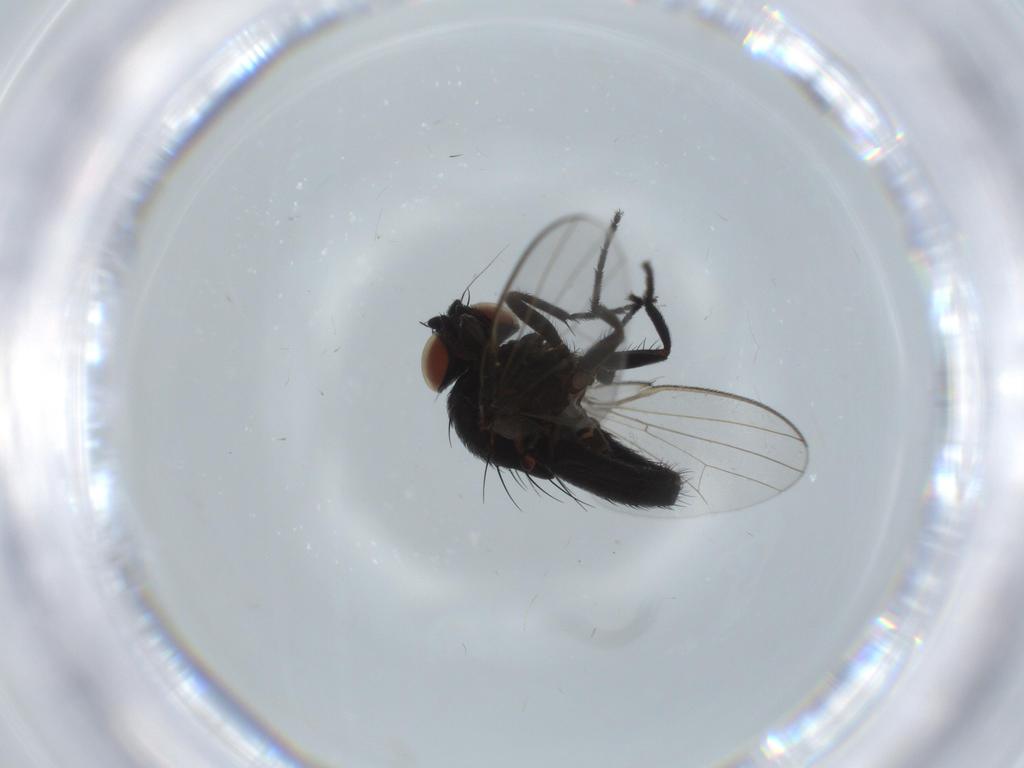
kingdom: Animalia
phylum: Arthropoda
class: Insecta
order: Diptera
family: Milichiidae
